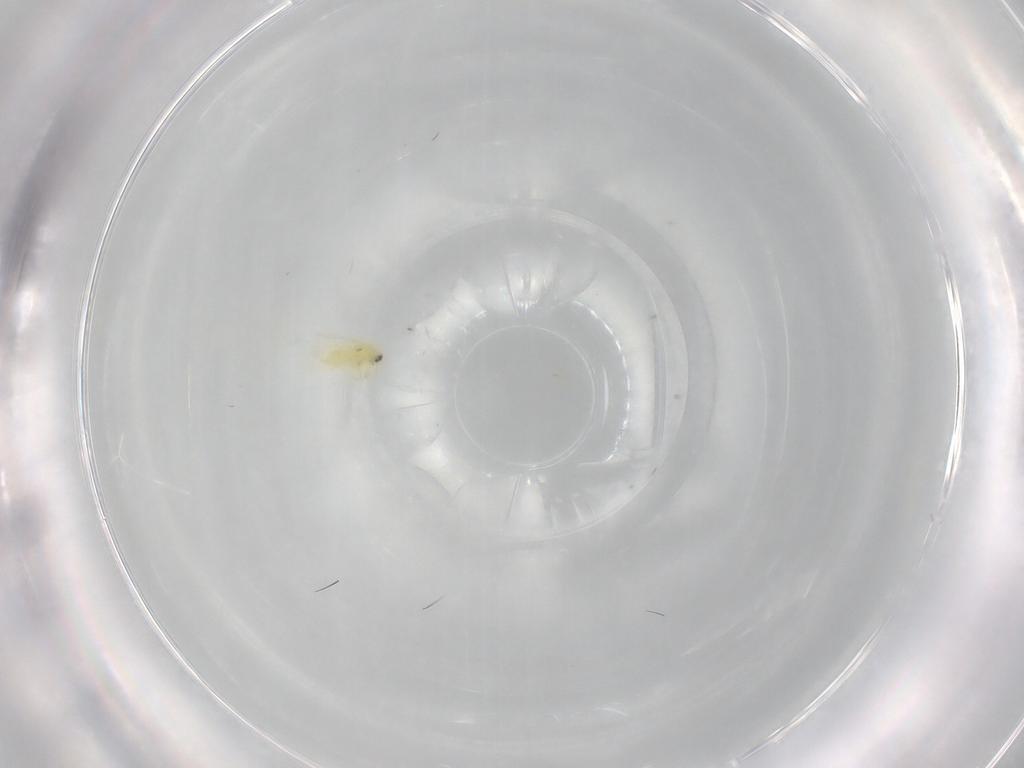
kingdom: Animalia
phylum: Arthropoda
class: Insecta
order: Hemiptera
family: Aleyrodidae
